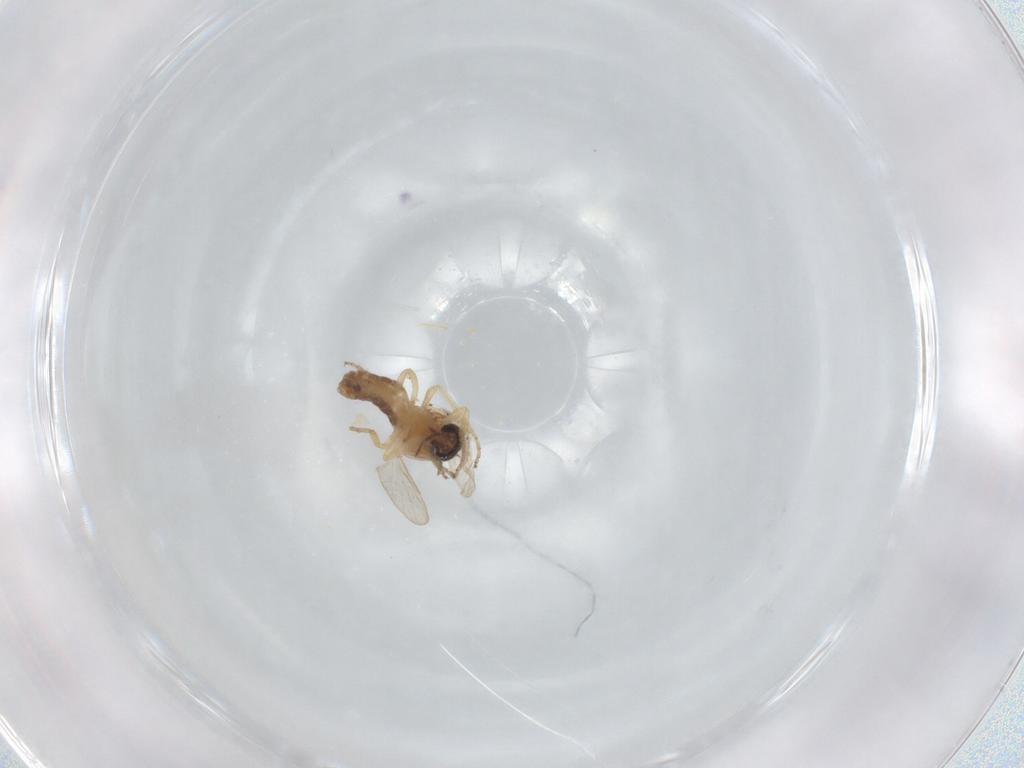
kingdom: Animalia
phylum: Arthropoda
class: Insecta
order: Diptera
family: Ceratopogonidae
